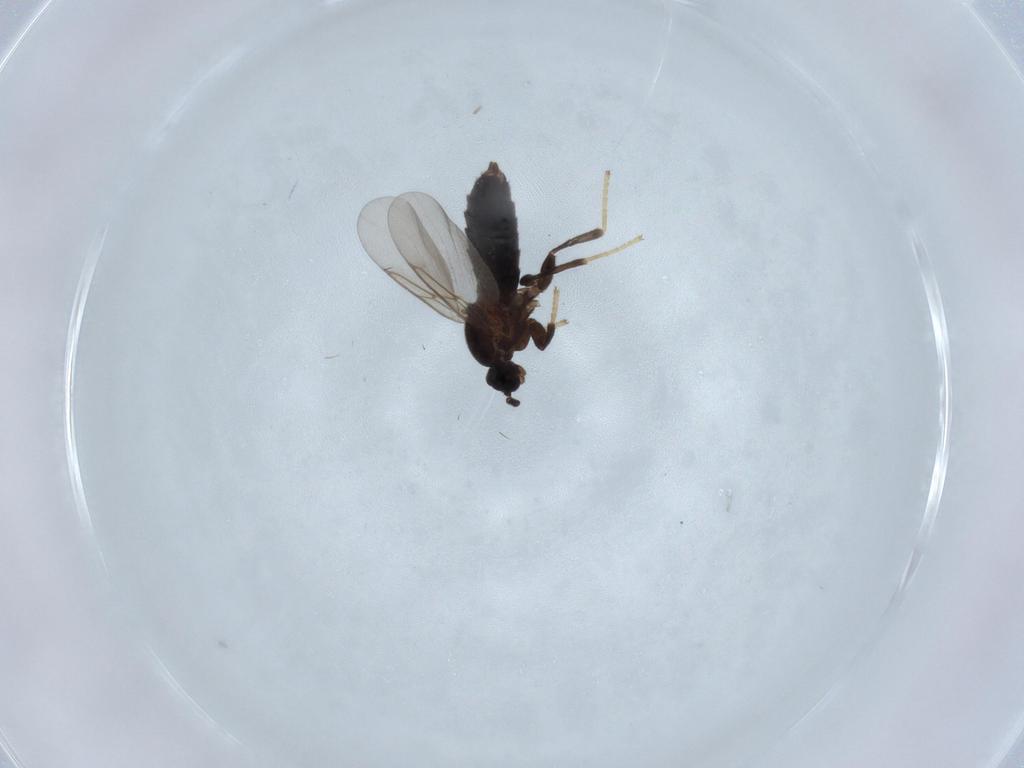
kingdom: Animalia
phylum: Arthropoda
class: Insecta
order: Diptera
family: Scatopsidae
